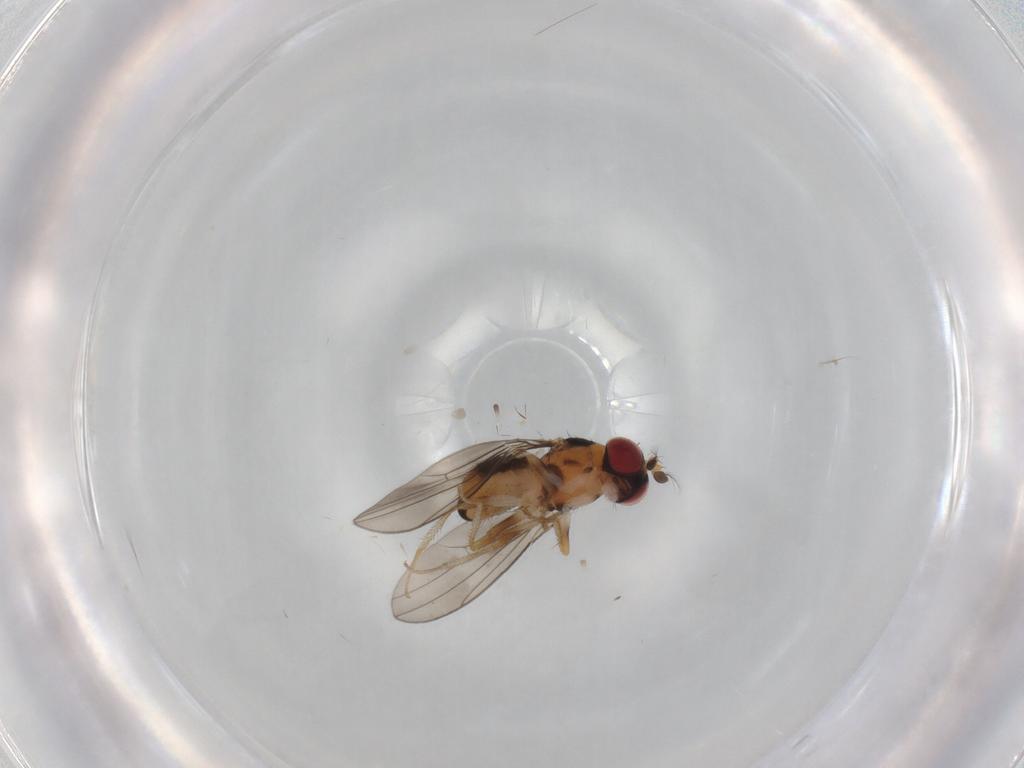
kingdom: Animalia
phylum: Arthropoda
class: Insecta
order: Diptera
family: Drosophilidae
